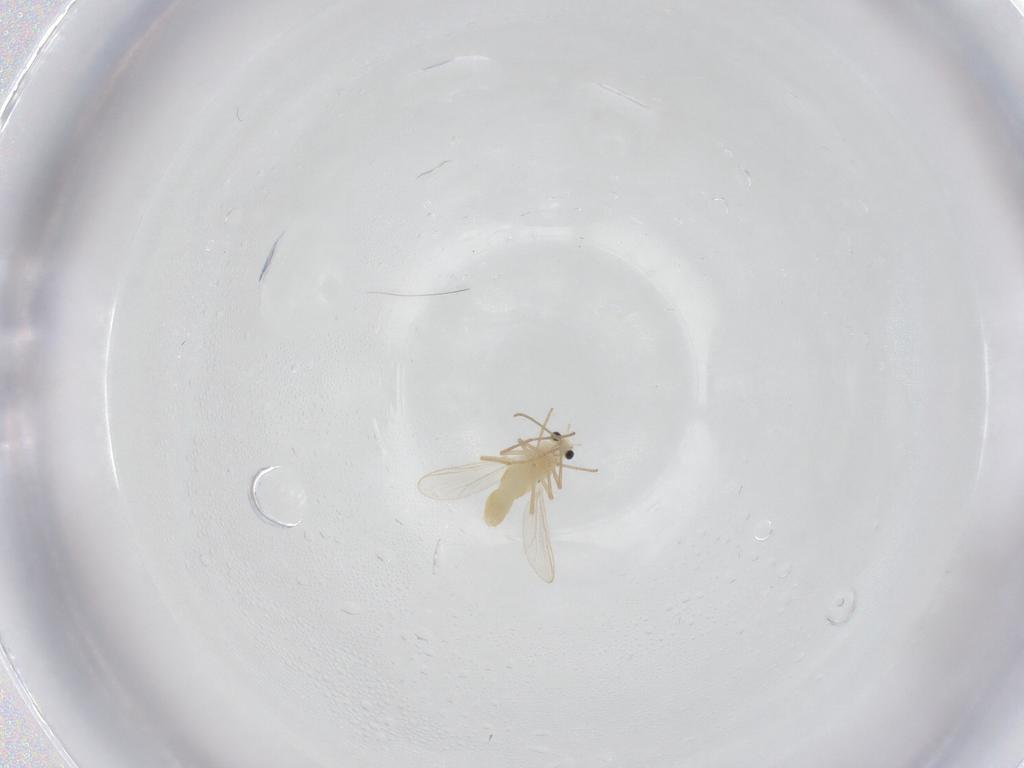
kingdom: Animalia
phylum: Arthropoda
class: Insecta
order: Diptera
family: Chironomidae
